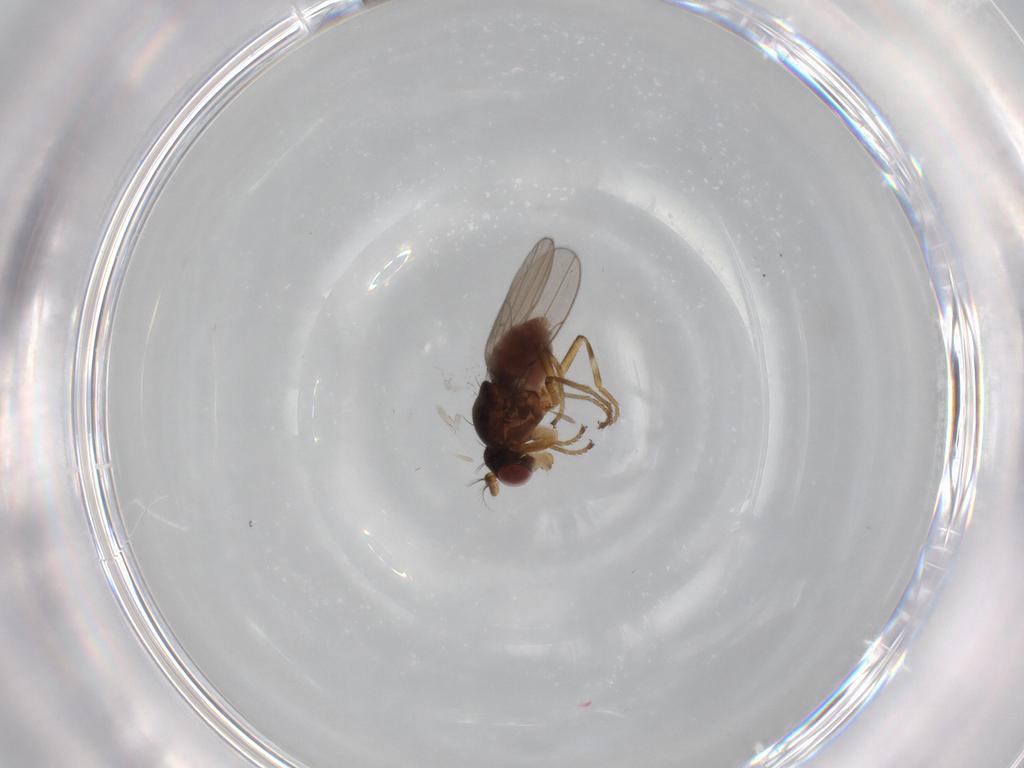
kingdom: Animalia
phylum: Arthropoda
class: Insecta
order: Diptera
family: Ephydridae
